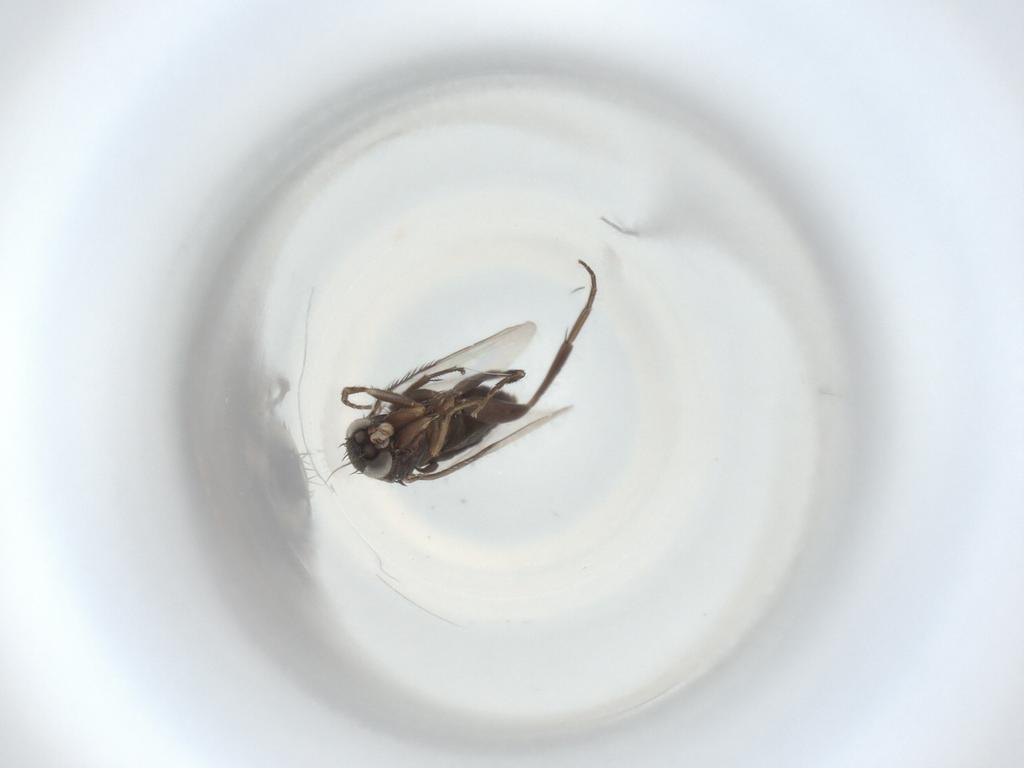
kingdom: Animalia
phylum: Arthropoda
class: Insecta
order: Diptera
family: Phoridae
